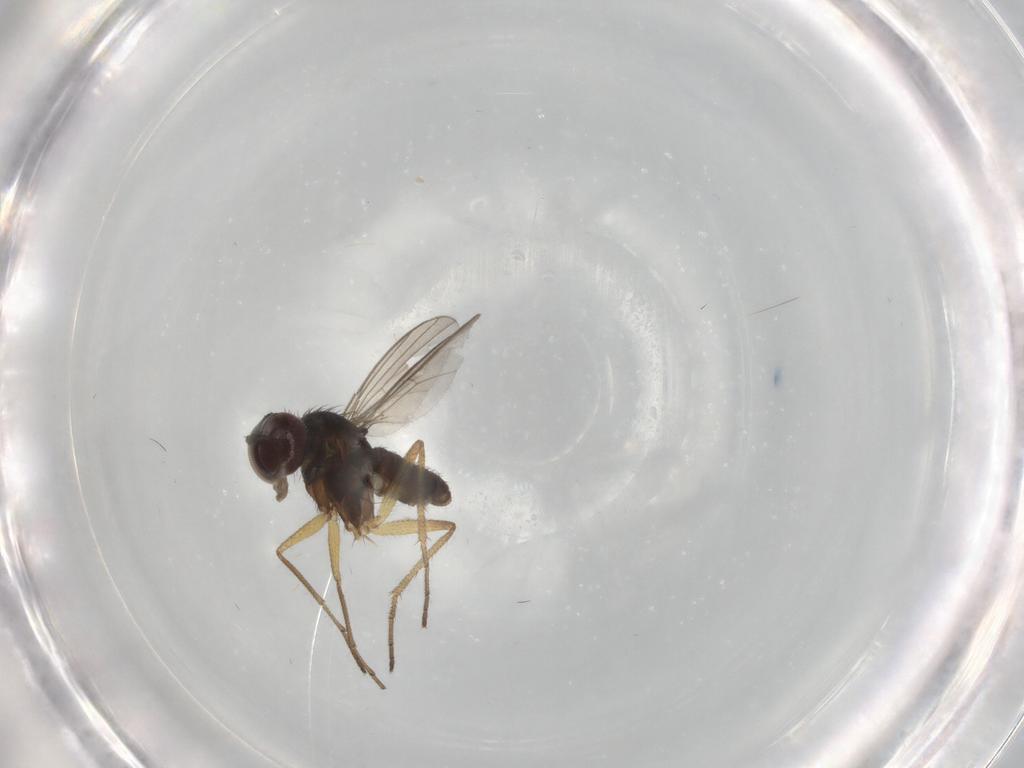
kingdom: Animalia
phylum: Arthropoda
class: Insecta
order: Diptera
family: Dolichopodidae
